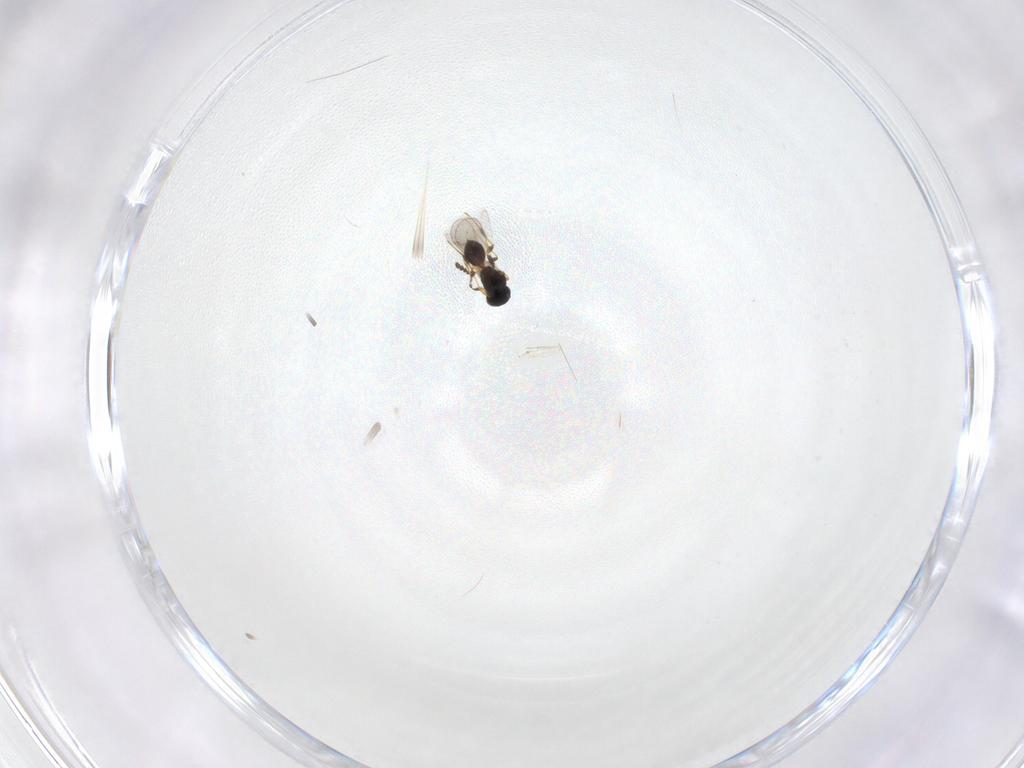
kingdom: Animalia
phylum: Arthropoda
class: Insecta
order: Hymenoptera
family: Platygastridae
